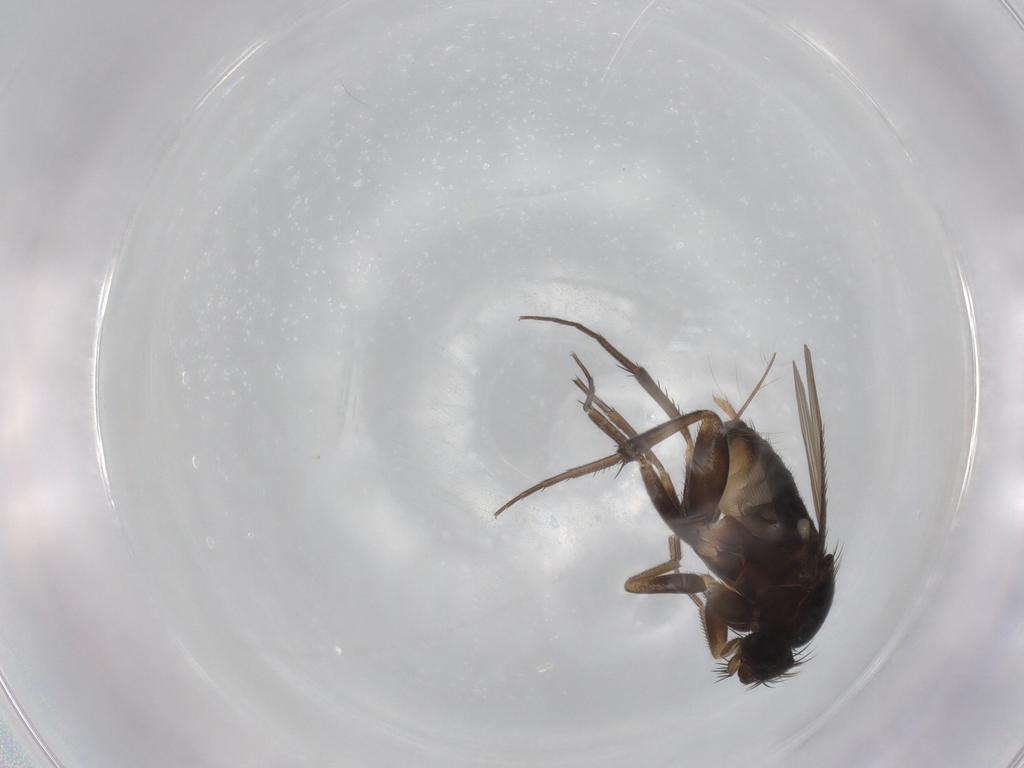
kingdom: Animalia
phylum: Arthropoda
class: Insecta
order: Diptera
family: Phoridae
